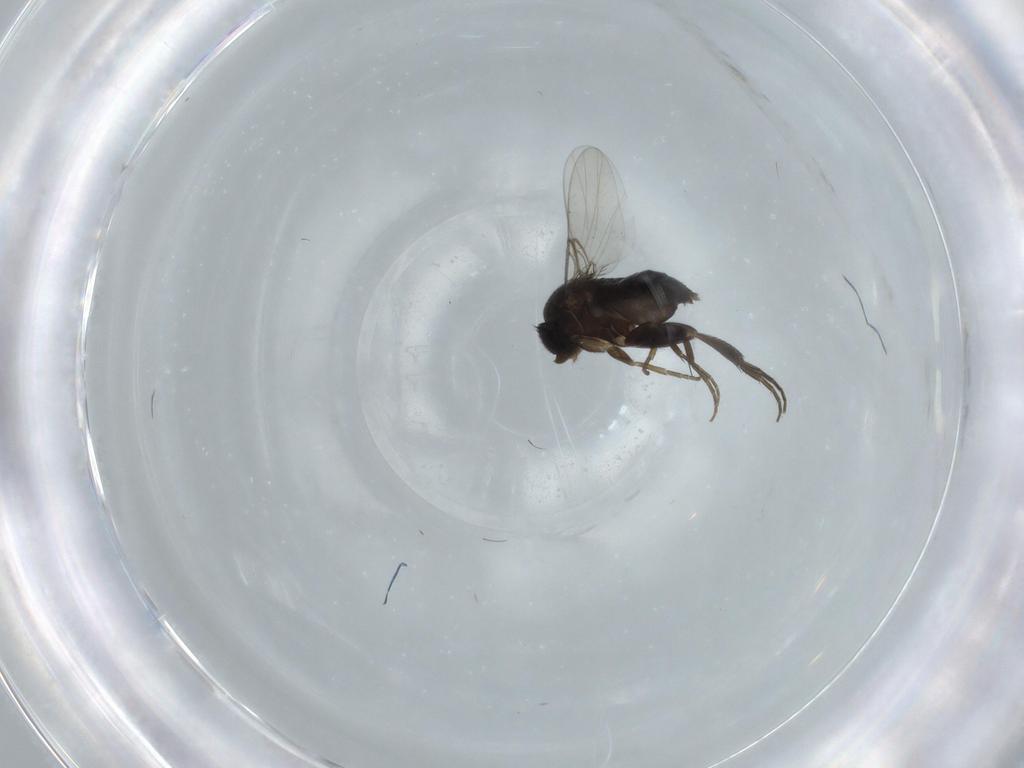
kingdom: Animalia
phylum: Arthropoda
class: Insecta
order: Diptera
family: Phoridae
